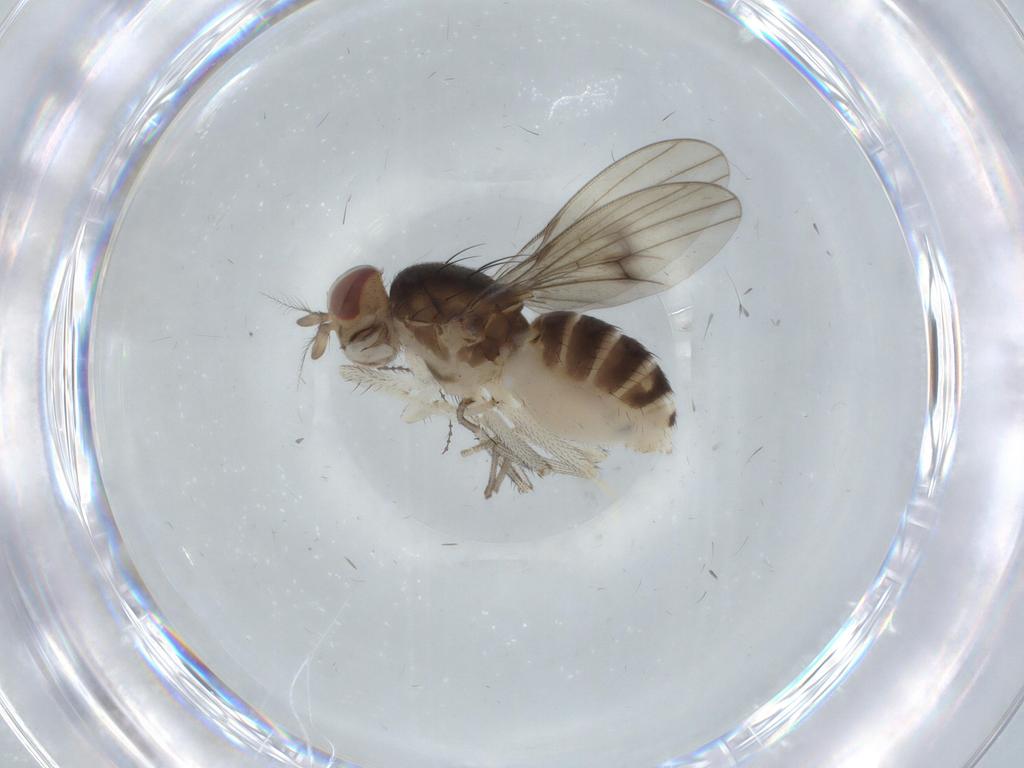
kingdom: Animalia
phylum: Arthropoda
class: Insecta
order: Diptera
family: Lauxaniidae
